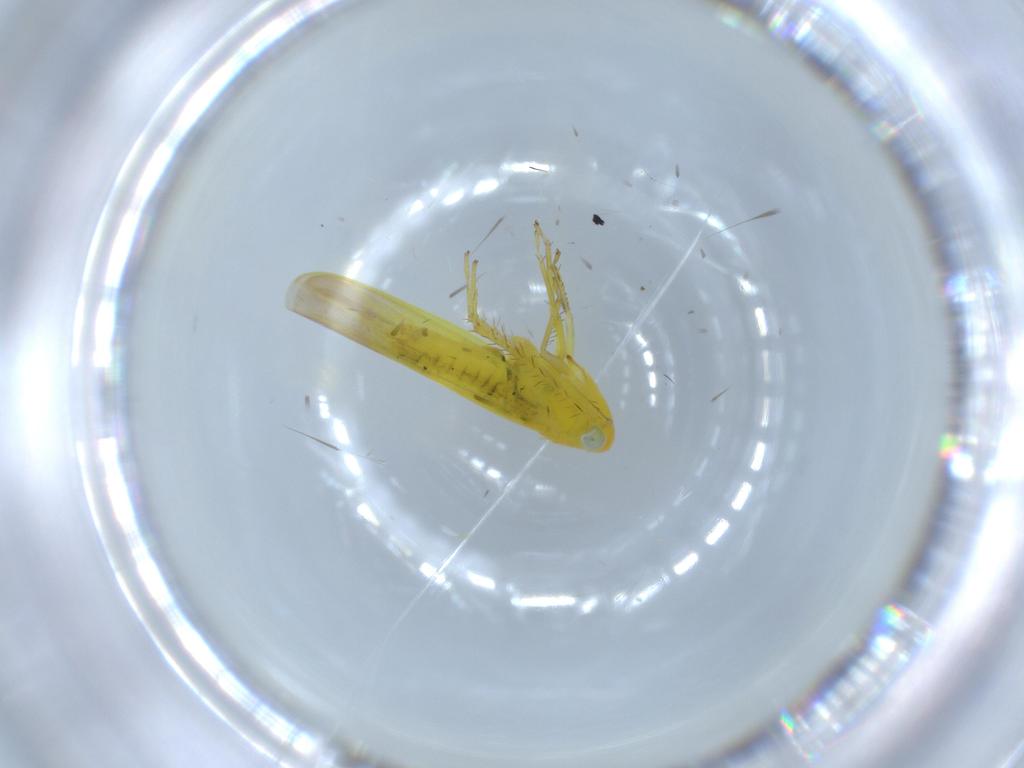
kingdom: Animalia
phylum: Arthropoda
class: Insecta
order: Hemiptera
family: Cicadellidae
